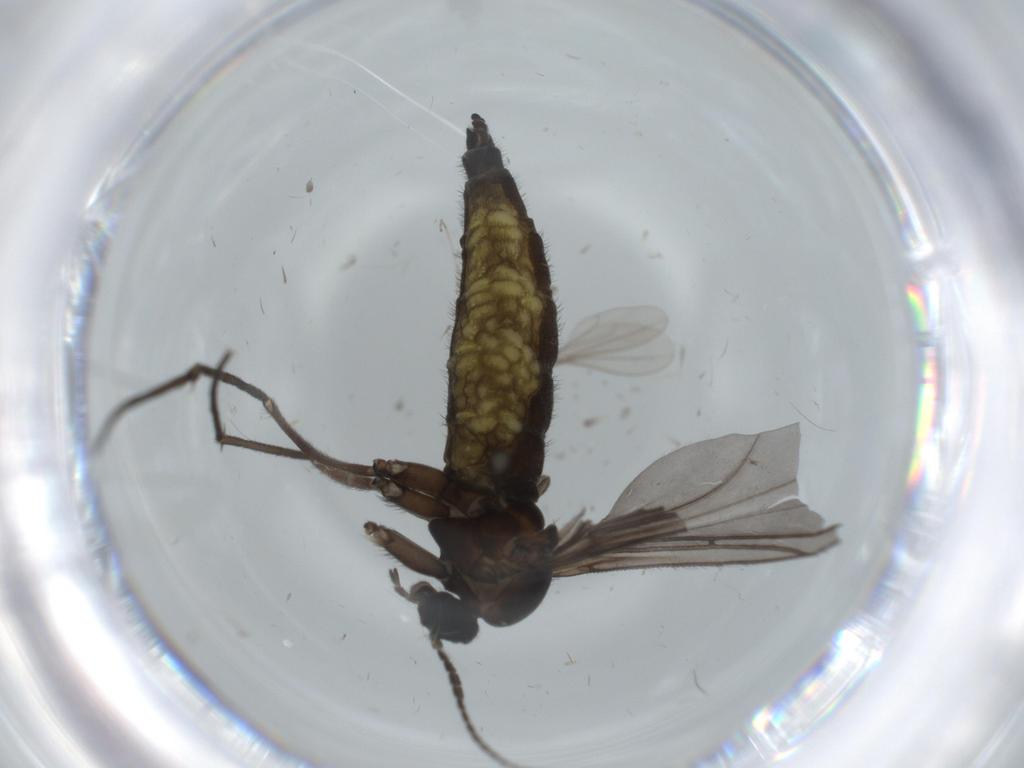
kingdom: Animalia
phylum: Arthropoda
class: Insecta
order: Diptera
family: Sciaridae
